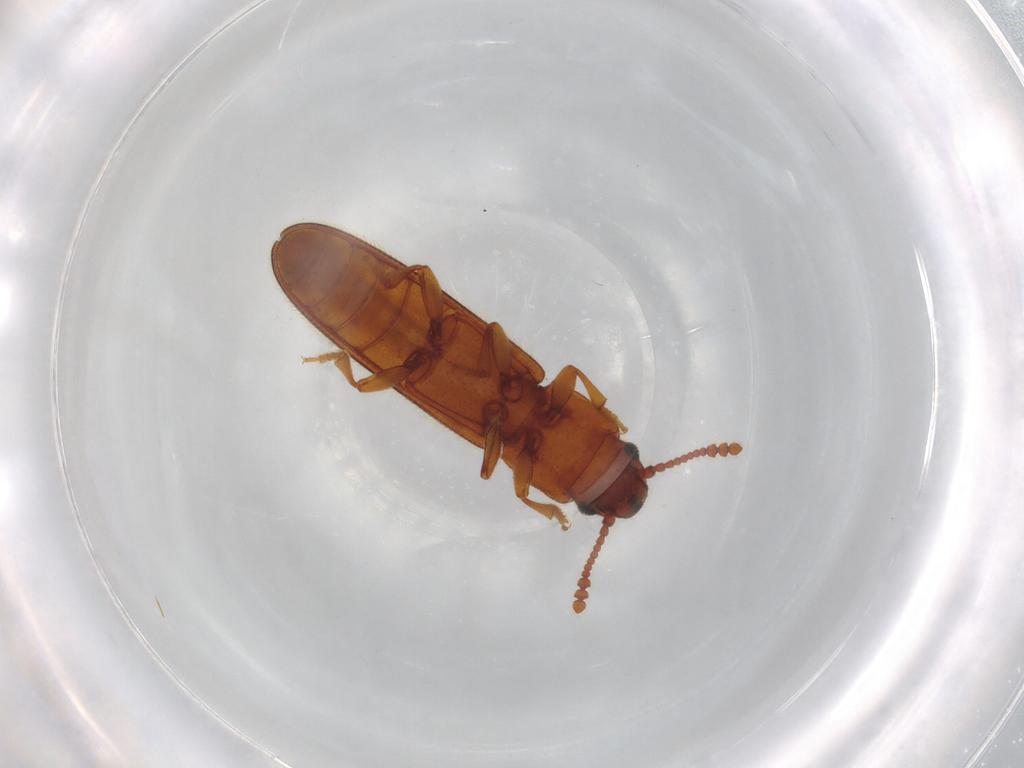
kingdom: Animalia
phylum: Arthropoda
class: Insecta
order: Coleoptera
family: Erotylidae
